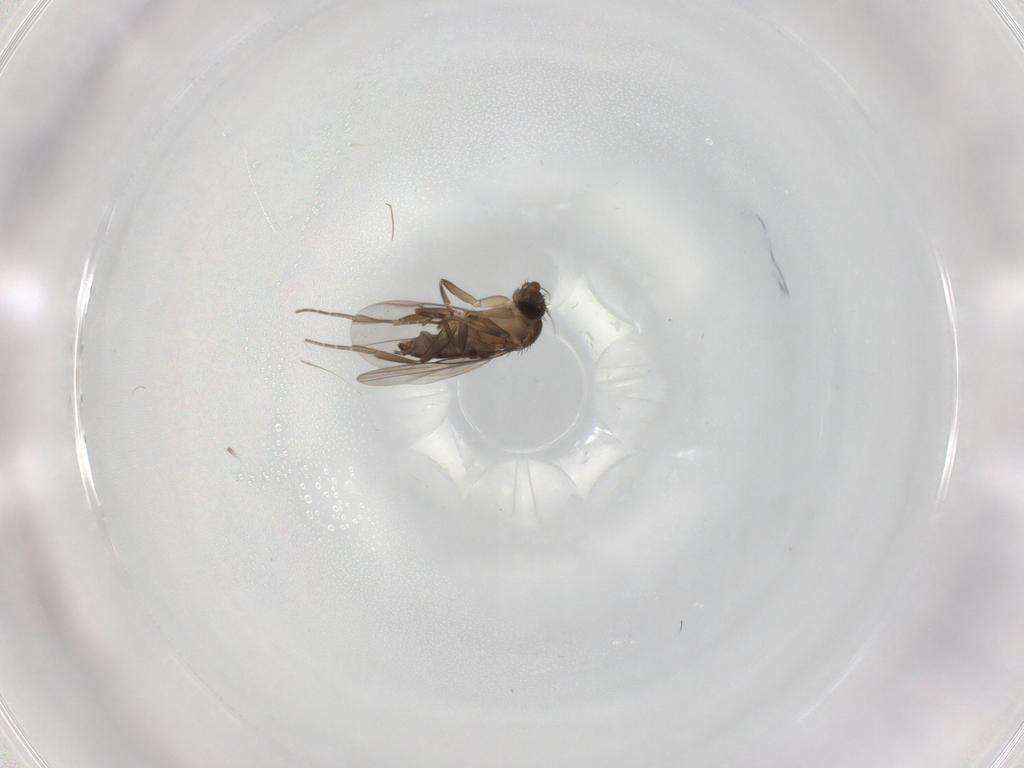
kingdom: Animalia
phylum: Arthropoda
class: Insecta
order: Diptera
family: Phoridae
